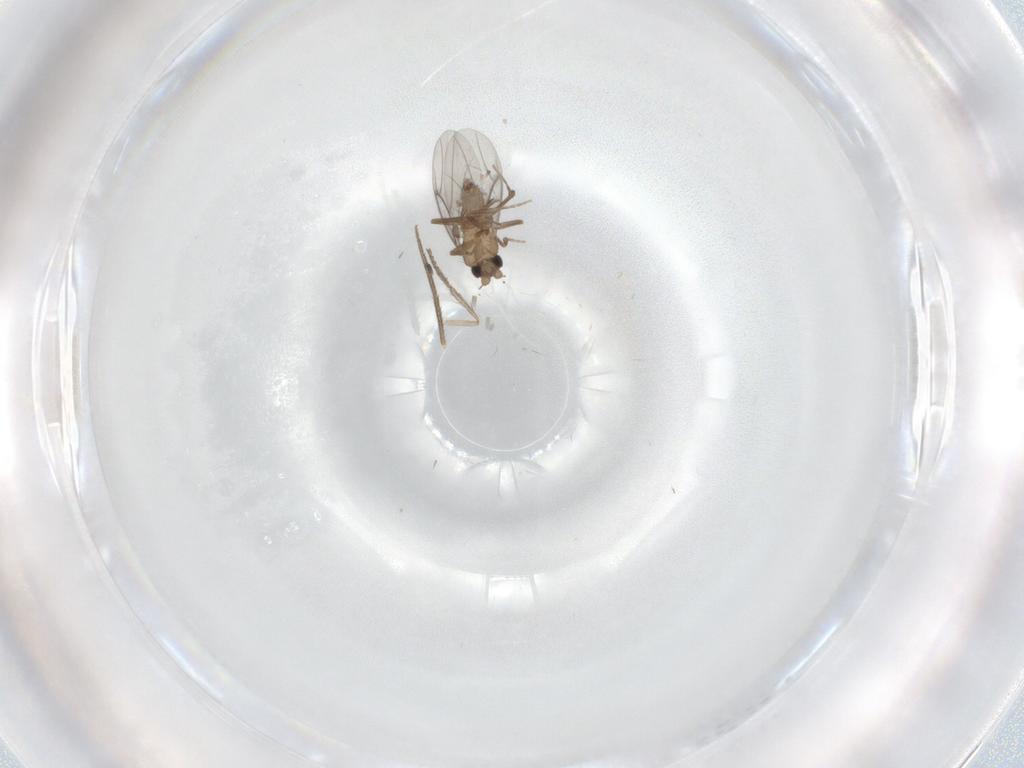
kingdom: Animalia
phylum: Arthropoda
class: Insecta
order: Diptera
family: Mycetophilidae
